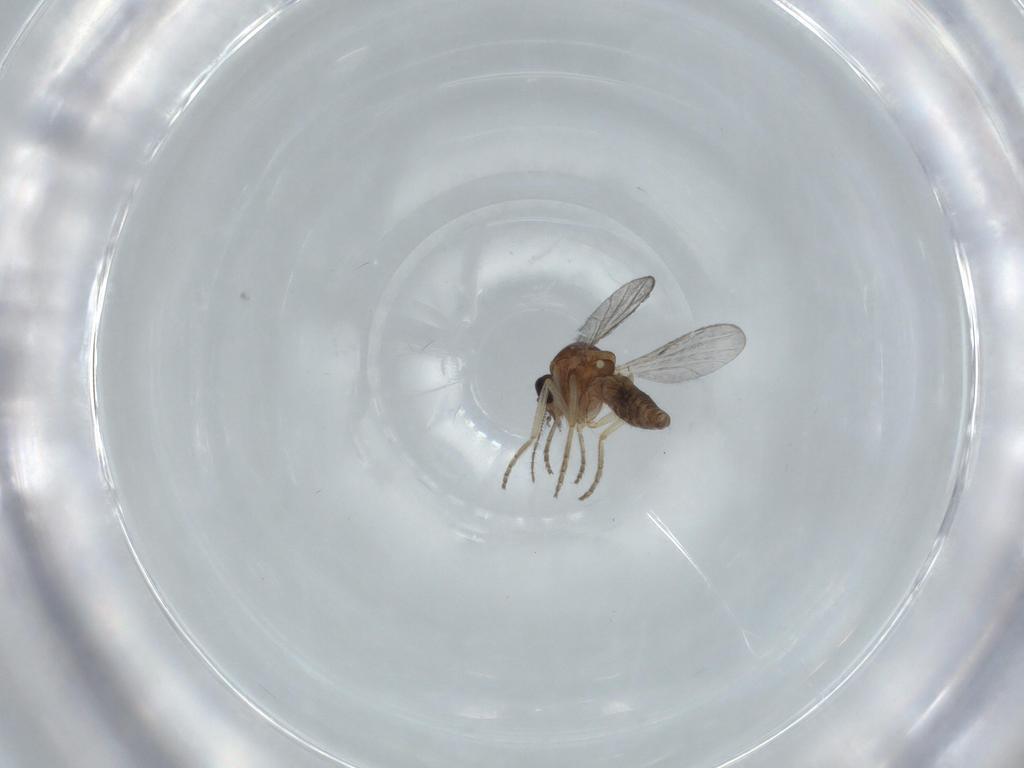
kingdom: Animalia
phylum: Arthropoda
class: Insecta
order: Diptera
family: Ceratopogonidae
